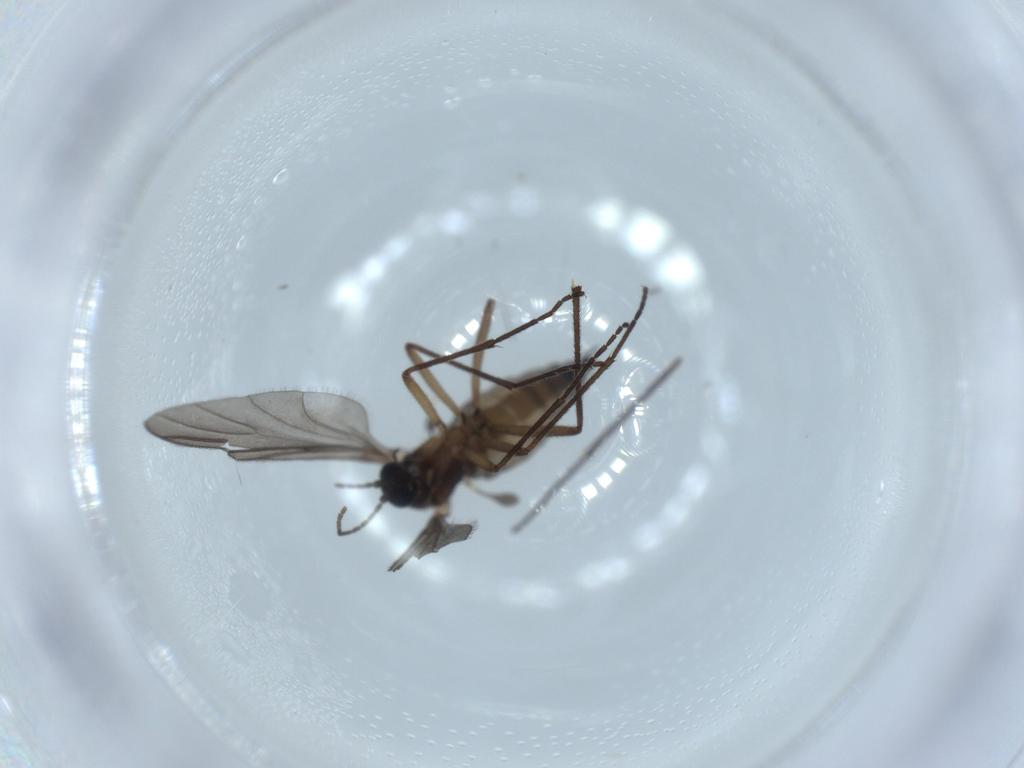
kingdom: Animalia
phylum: Arthropoda
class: Insecta
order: Diptera
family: Sciaridae
